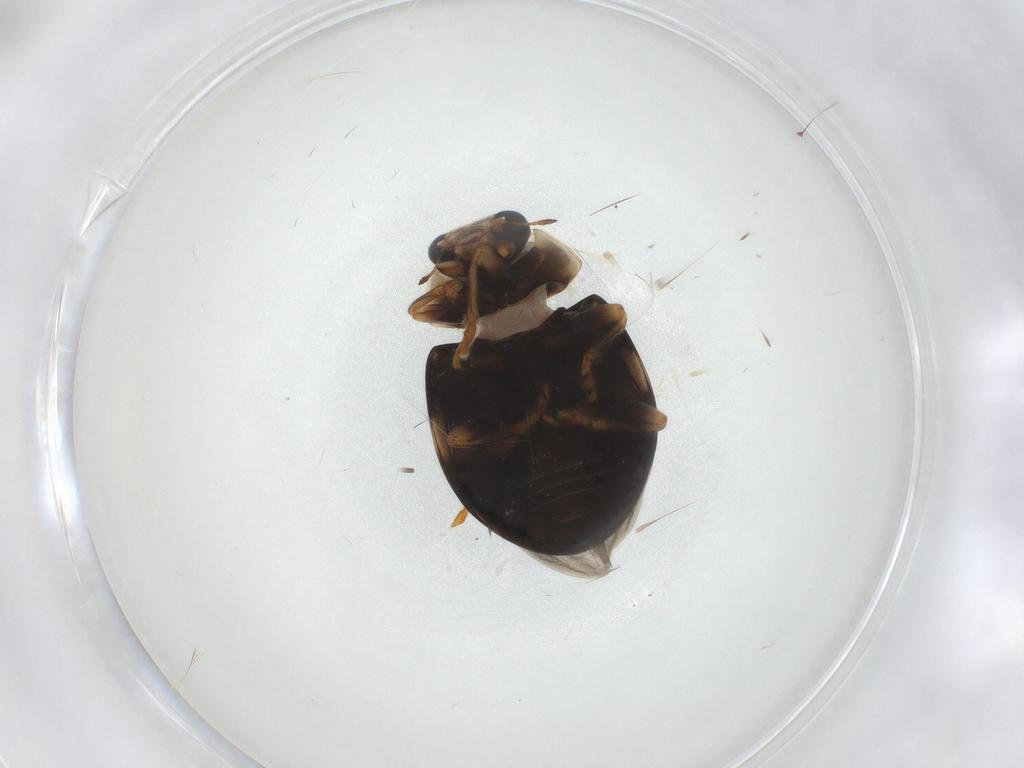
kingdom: Animalia
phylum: Arthropoda
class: Insecta
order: Coleoptera
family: Coccinellidae
